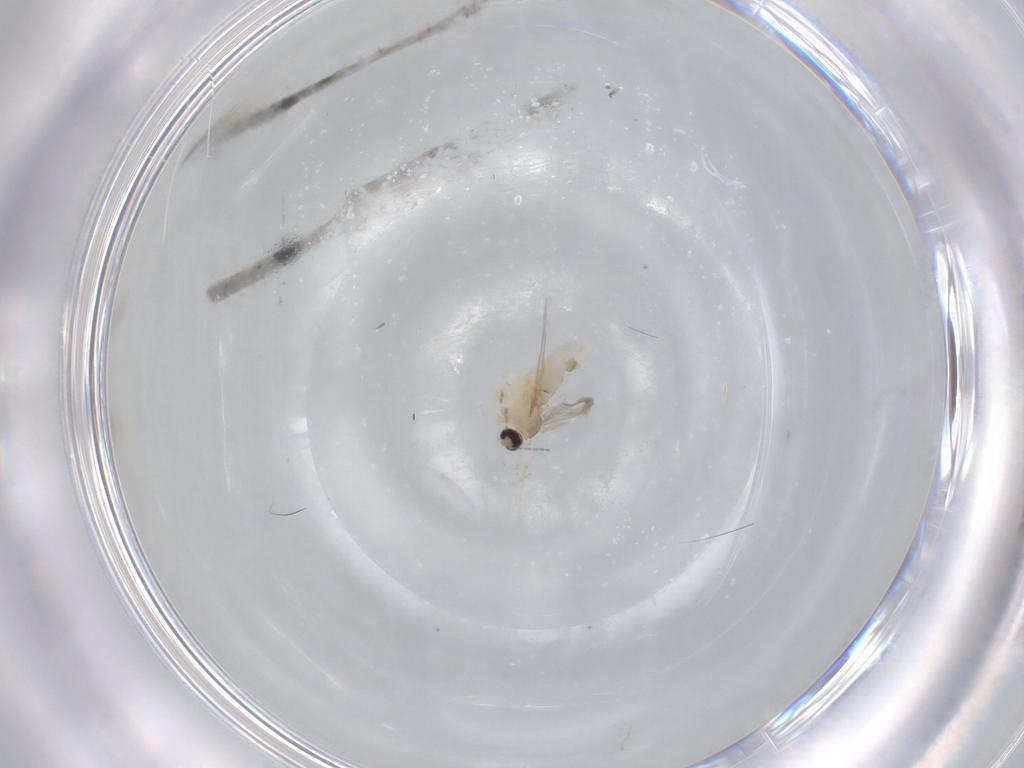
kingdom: Animalia
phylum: Arthropoda
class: Insecta
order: Diptera
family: Cecidomyiidae
